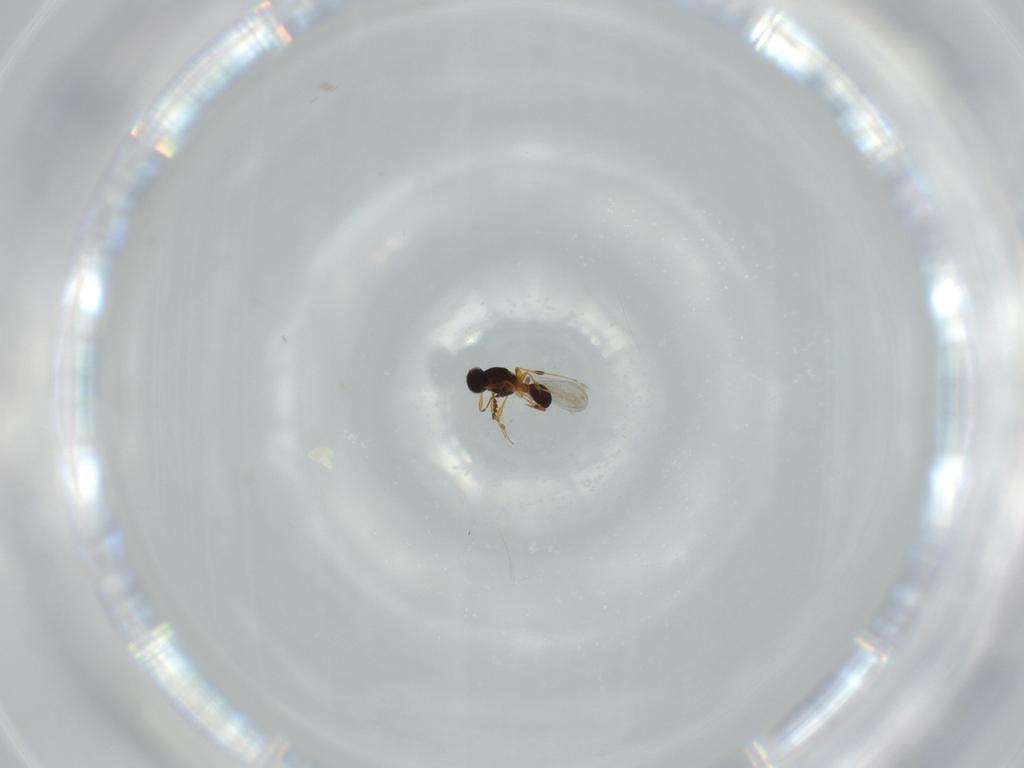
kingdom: Animalia
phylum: Arthropoda
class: Insecta
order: Hymenoptera
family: Platygastridae
